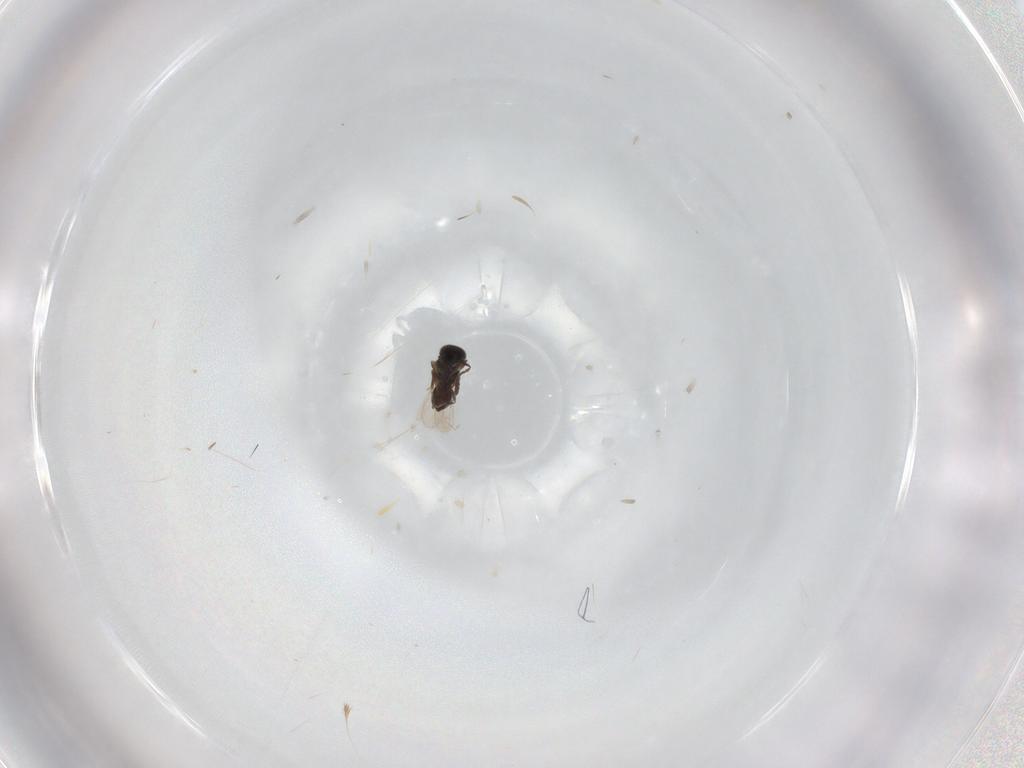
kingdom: Animalia
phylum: Arthropoda
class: Insecta
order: Hymenoptera
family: Scelionidae
